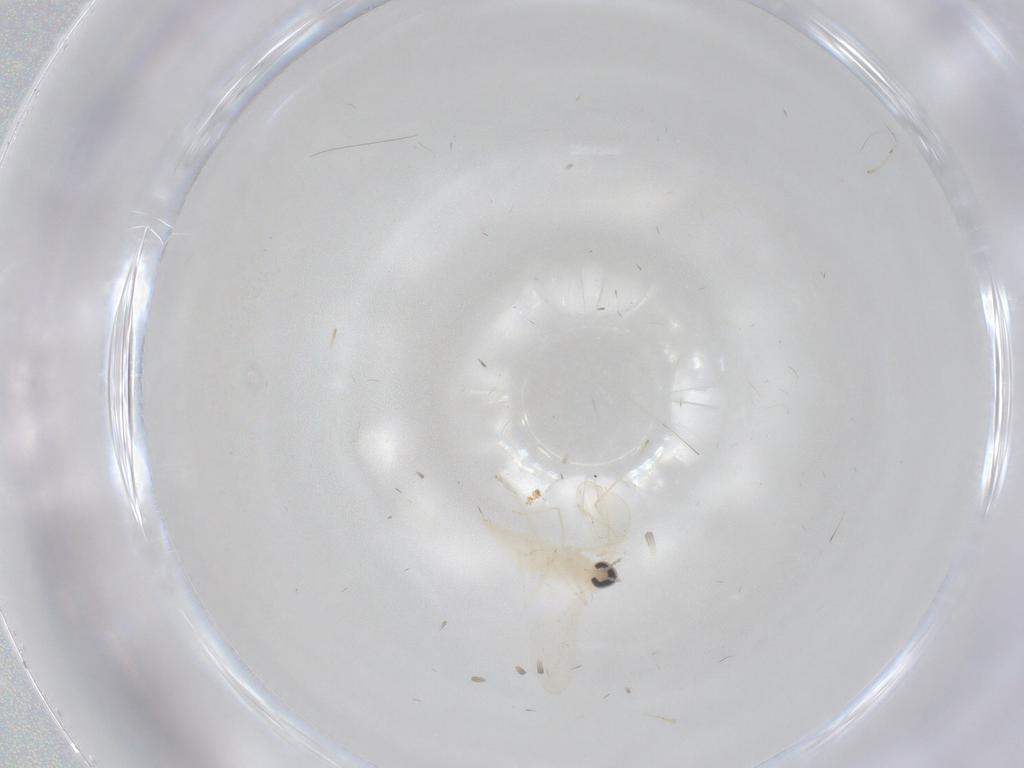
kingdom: Animalia
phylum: Arthropoda
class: Insecta
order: Diptera
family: Cecidomyiidae
